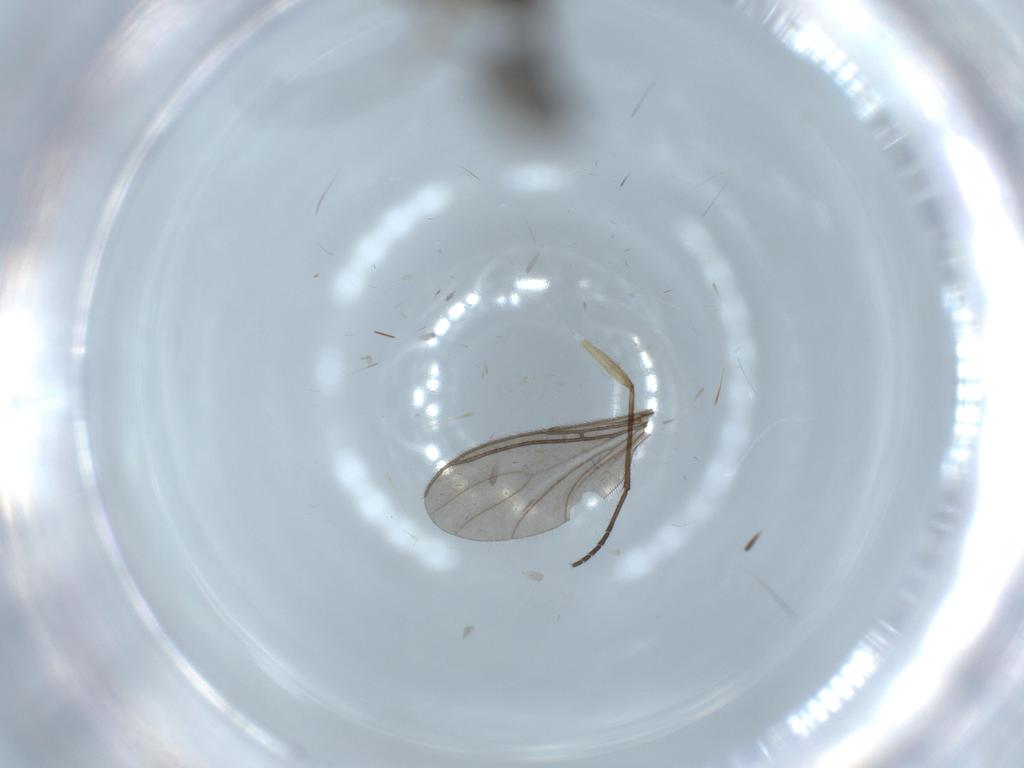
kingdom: Animalia
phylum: Arthropoda
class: Insecta
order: Diptera
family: Sciaridae
